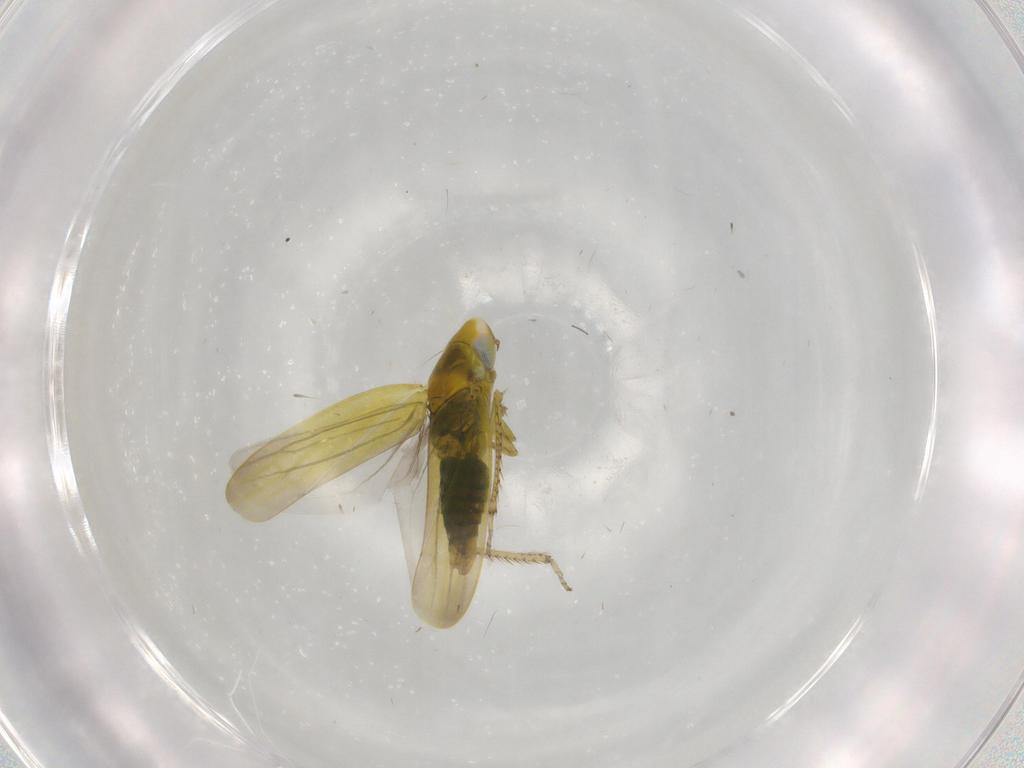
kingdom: Animalia
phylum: Arthropoda
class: Insecta
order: Hemiptera
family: Cicadellidae
